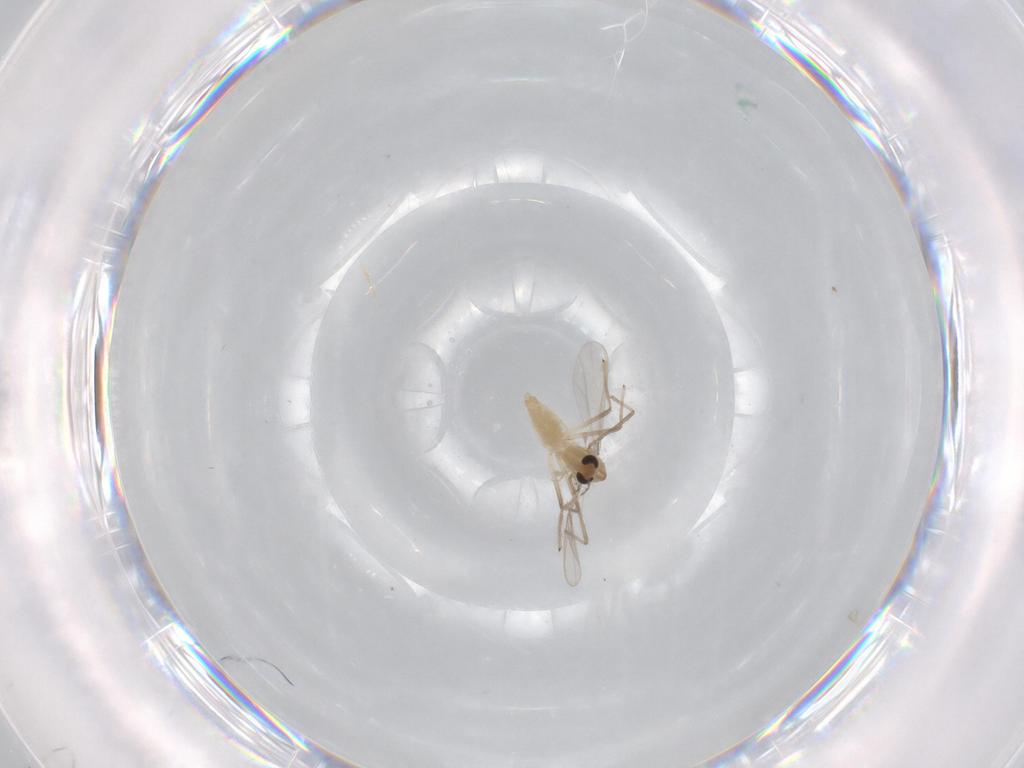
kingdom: Animalia
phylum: Arthropoda
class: Insecta
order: Diptera
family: Chironomidae
